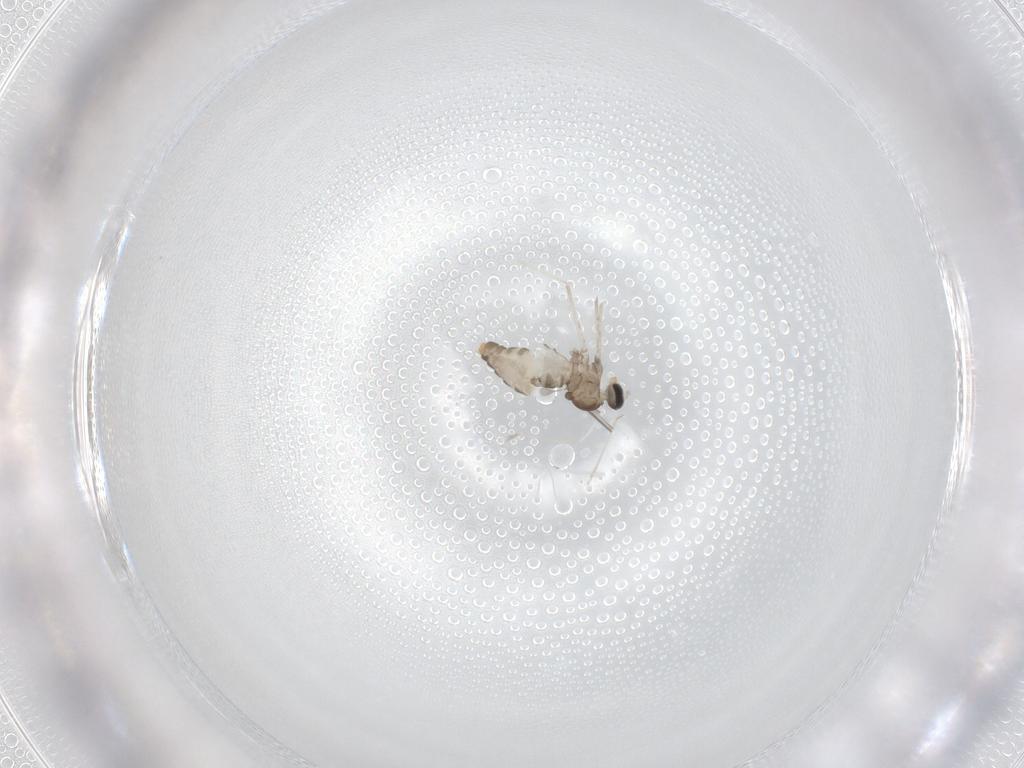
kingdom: Animalia
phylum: Arthropoda
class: Insecta
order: Diptera
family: Cecidomyiidae
